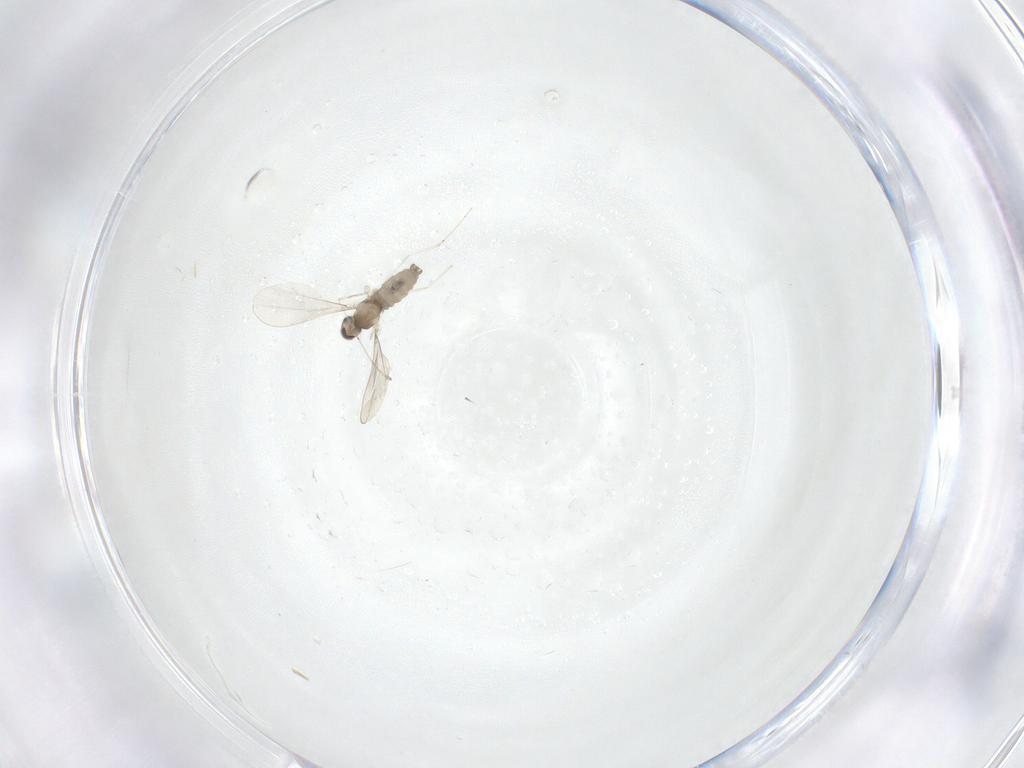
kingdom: Animalia
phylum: Arthropoda
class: Insecta
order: Diptera
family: Cecidomyiidae
